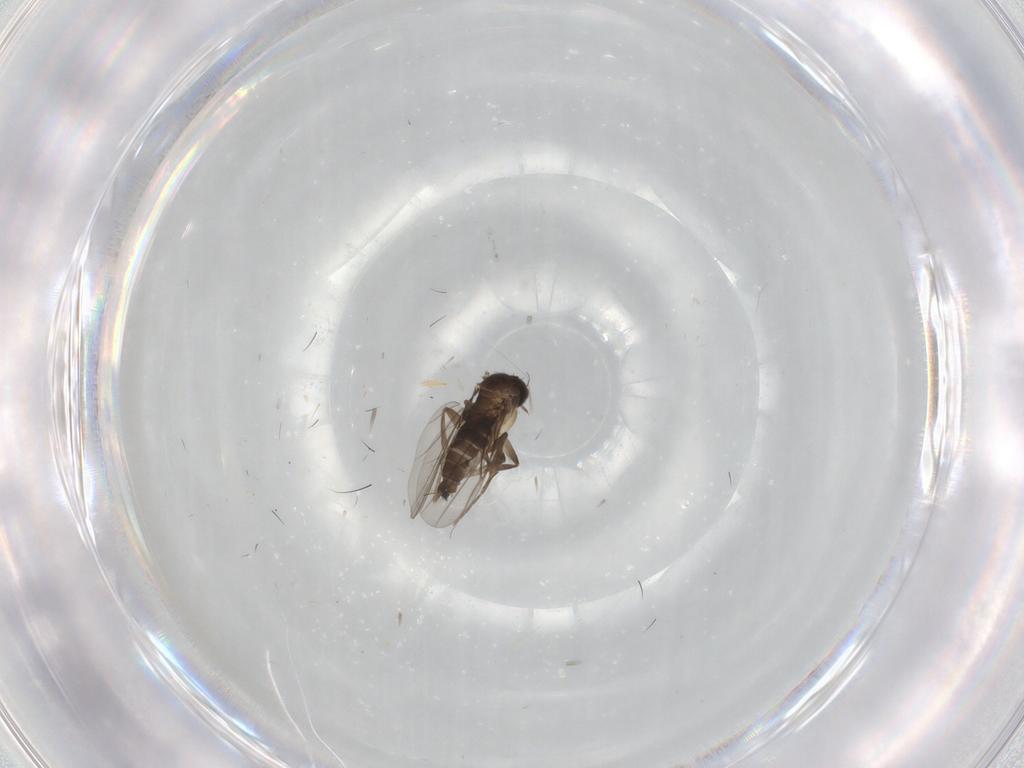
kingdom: Animalia
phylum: Arthropoda
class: Insecta
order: Diptera
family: Phoridae
